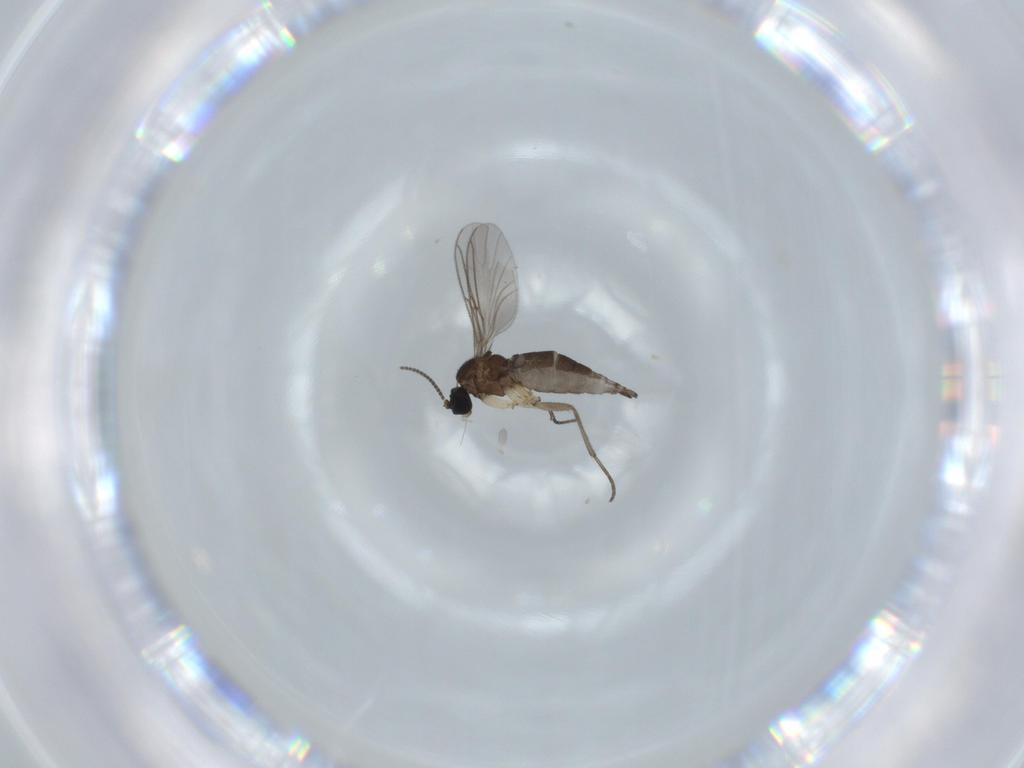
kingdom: Animalia
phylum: Arthropoda
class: Insecta
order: Diptera
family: Sciaridae
